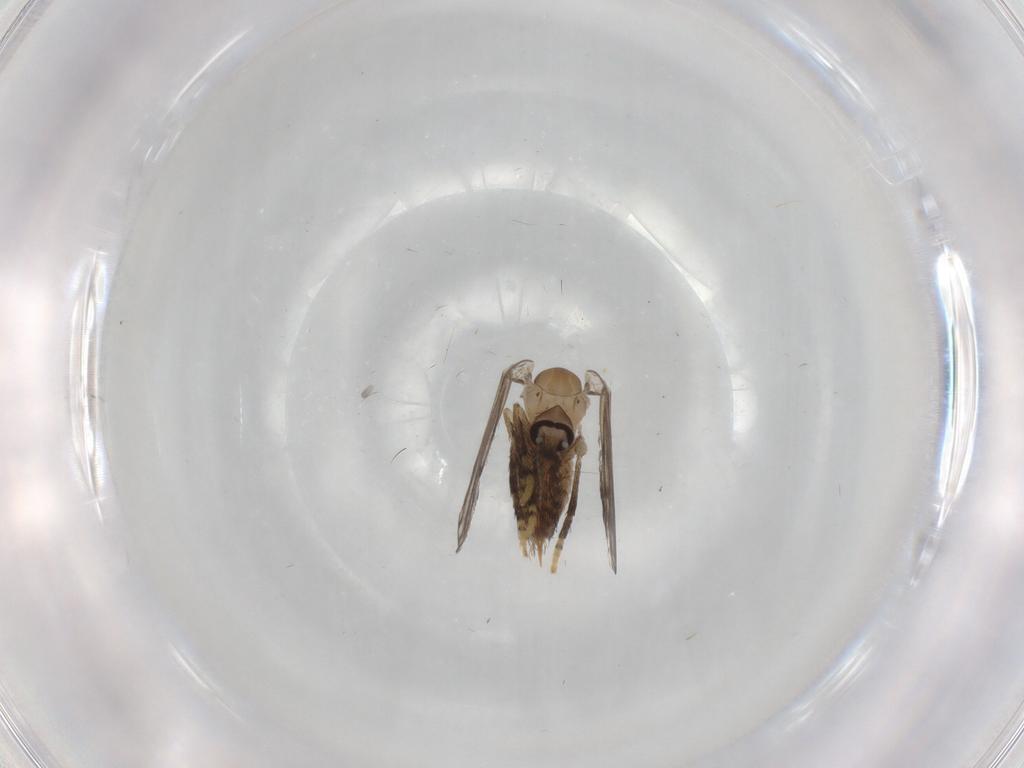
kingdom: Animalia
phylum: Arthropoda
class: Insecta
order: Diptera
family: Psychodidae
